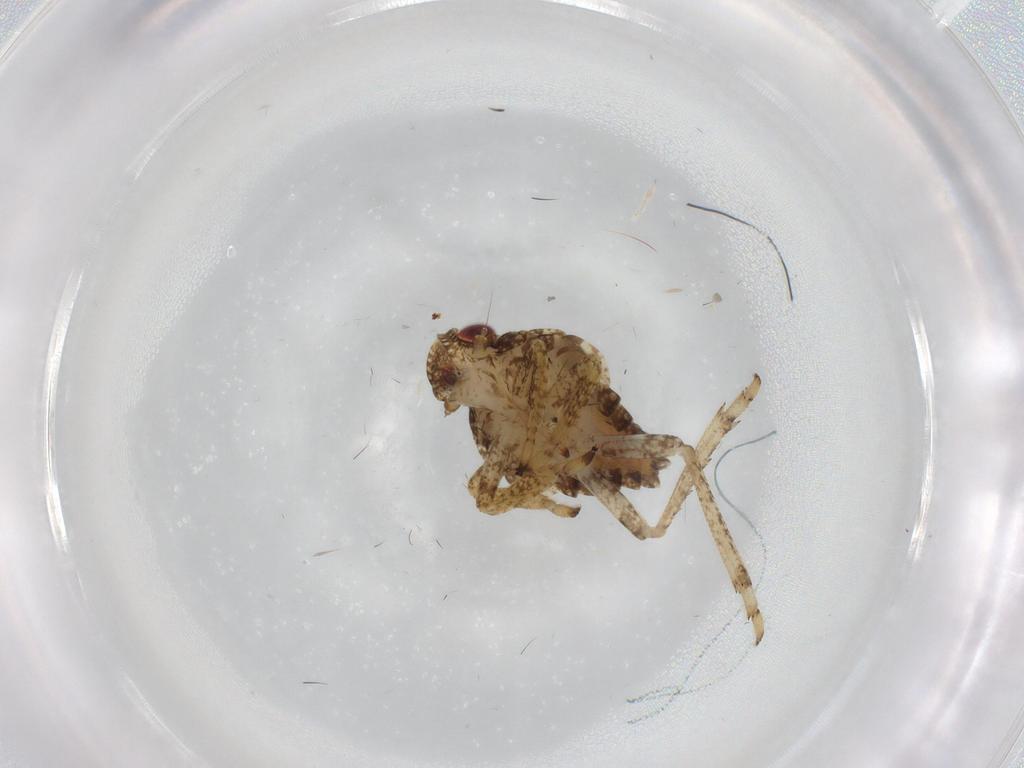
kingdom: Animalia
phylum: Arthropoda
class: Insecta
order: Hemiptera
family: Issidae
